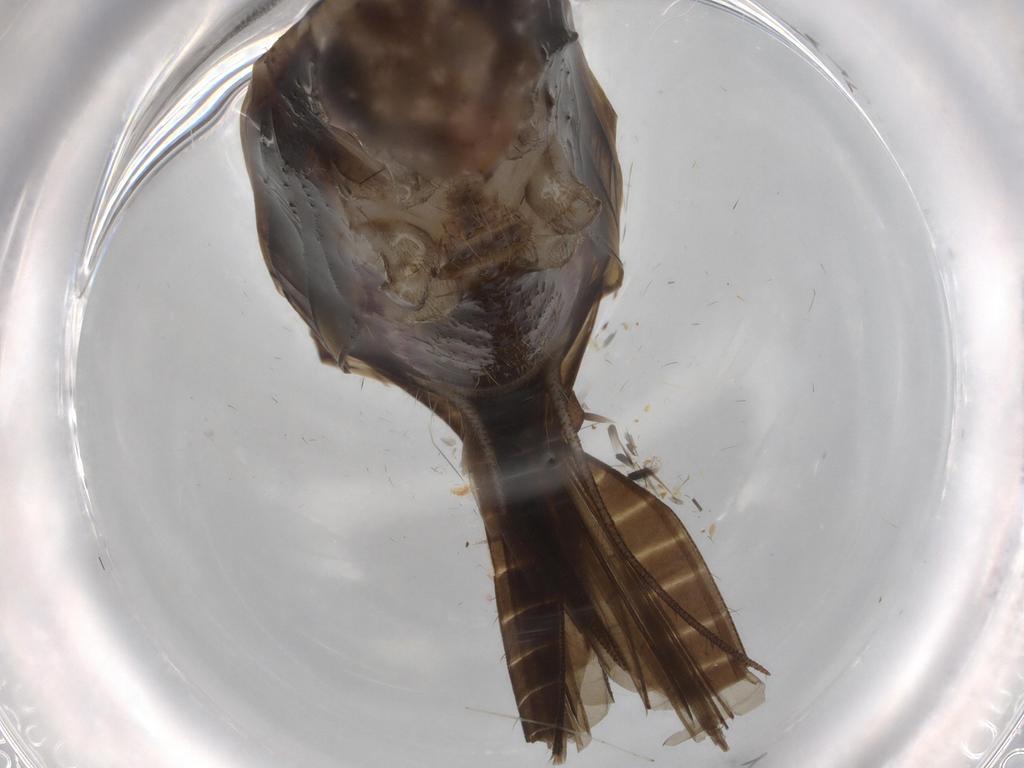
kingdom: Animalia
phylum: Arthropoda
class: Insecta
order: Orthoptera
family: Trigonidiidae
